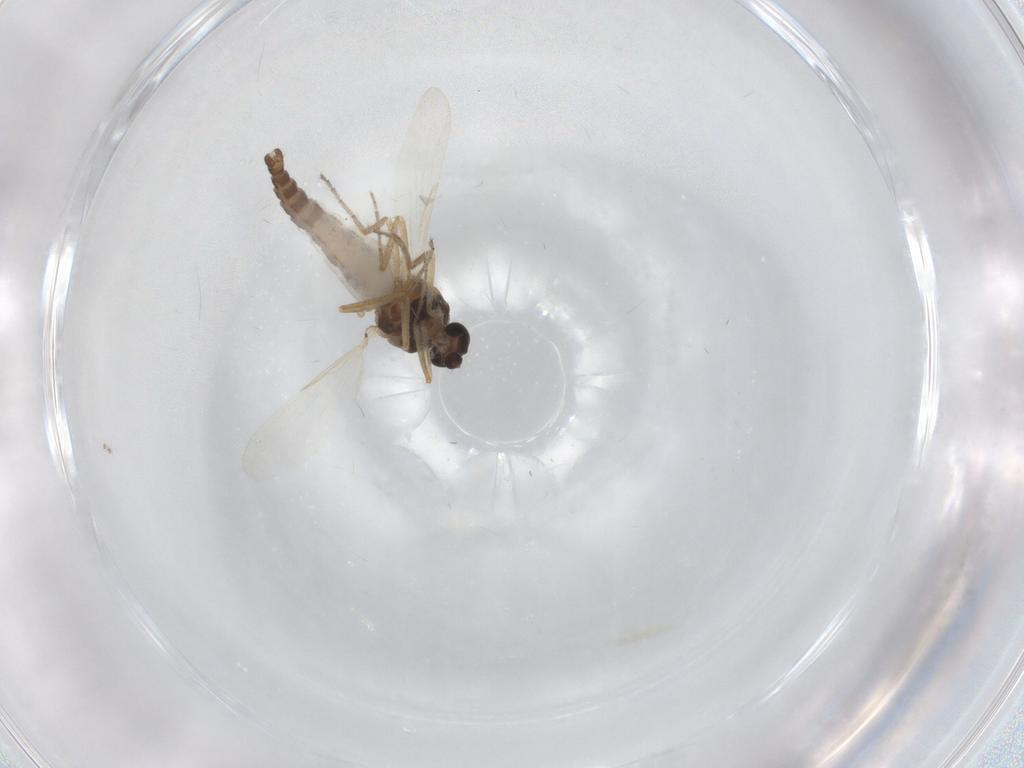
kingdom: Animalia
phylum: Arthropoda
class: Insecta
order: Diptera
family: Ceratopogonidae
